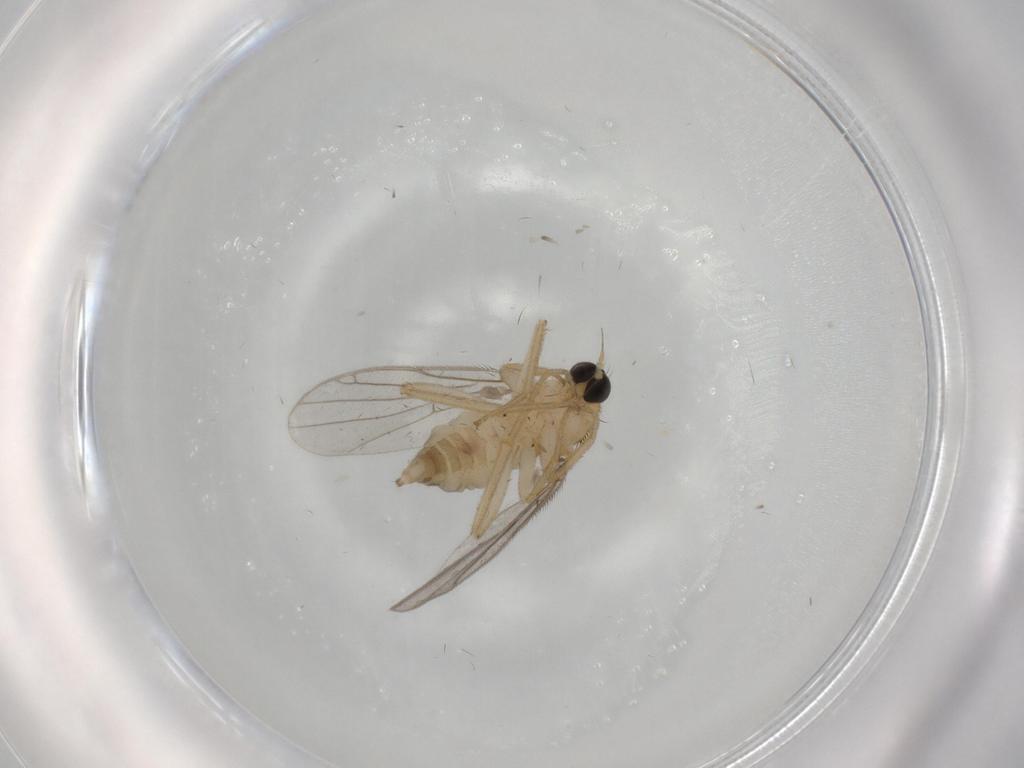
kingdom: Animalia
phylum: Arthropoda
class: Insecta
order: Diptera
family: Hybotidae
